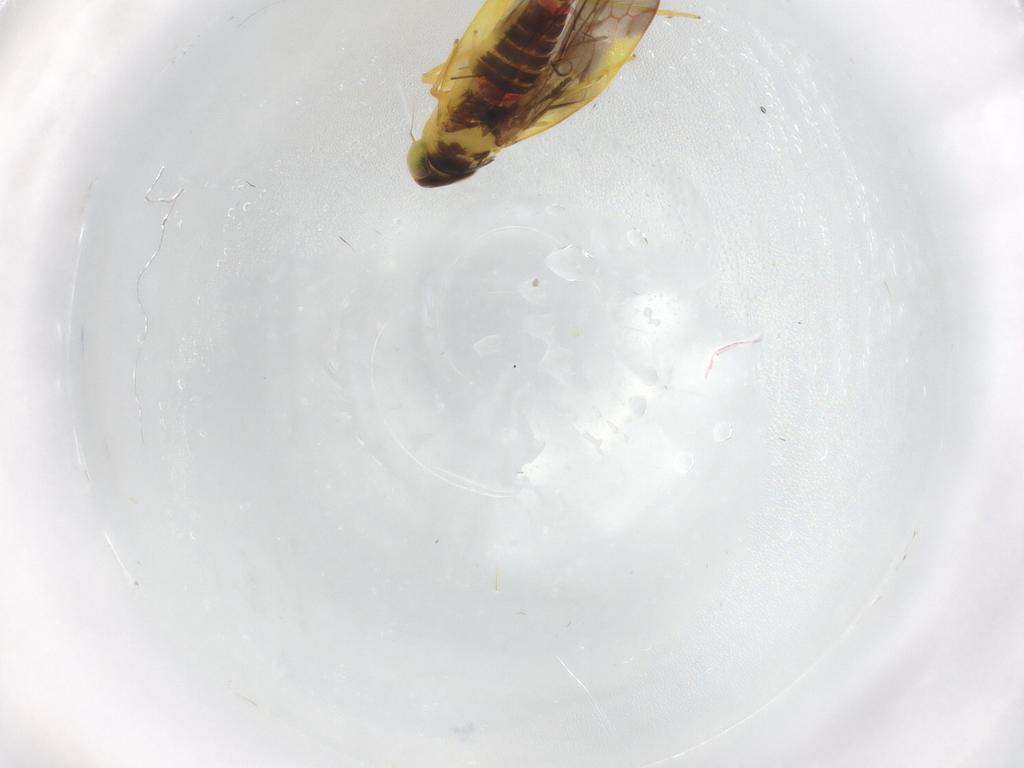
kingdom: Animalia
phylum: Arthropoda
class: Insecta
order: Hemiptera
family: Cicadellidae
